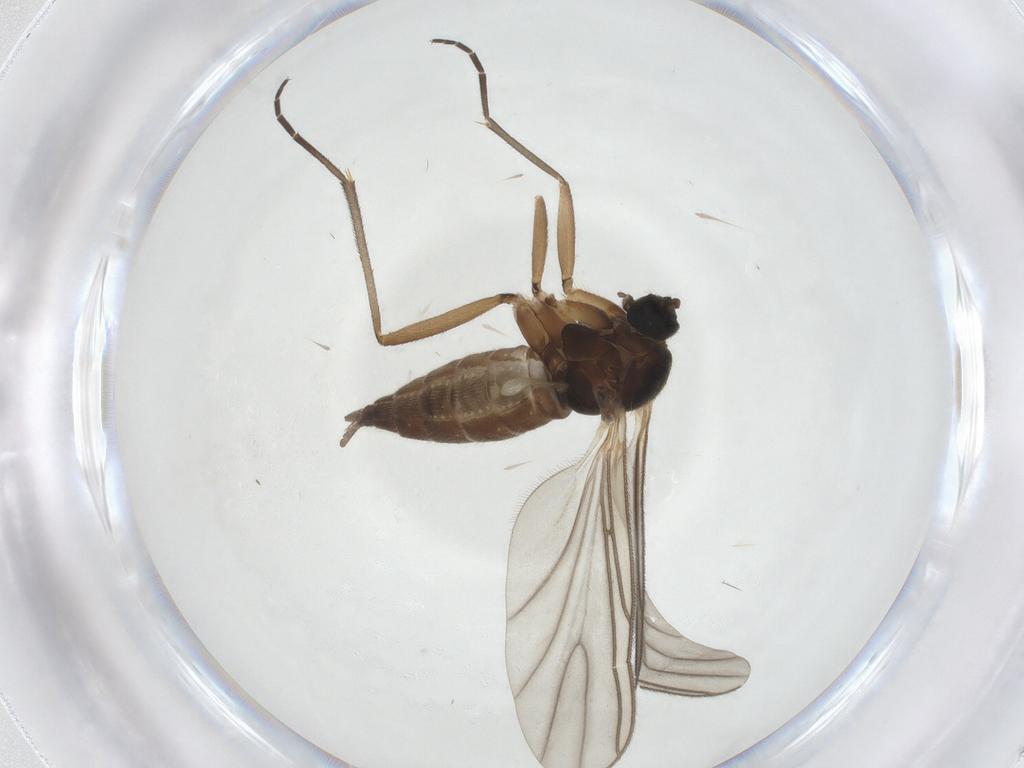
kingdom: Animalia
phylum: Arthropoda
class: Insecta
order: Diptera
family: Sciaridae
